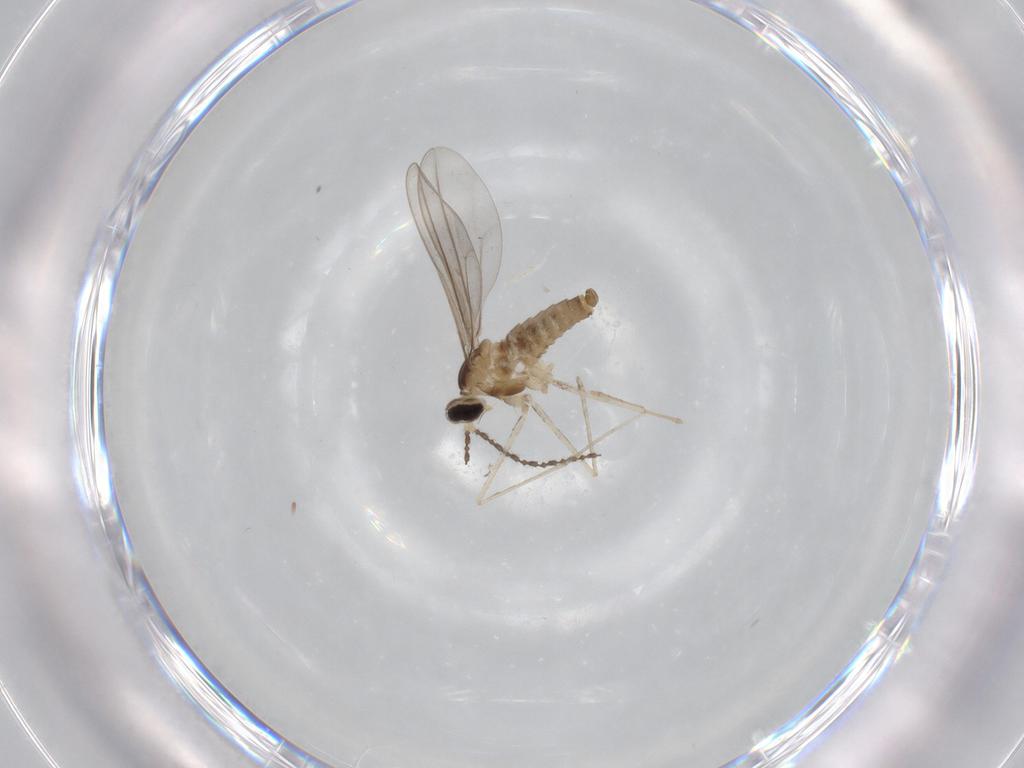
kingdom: Animalia
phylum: Arthropoda
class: Insecta
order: Diptera
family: Cecidomyiidae
